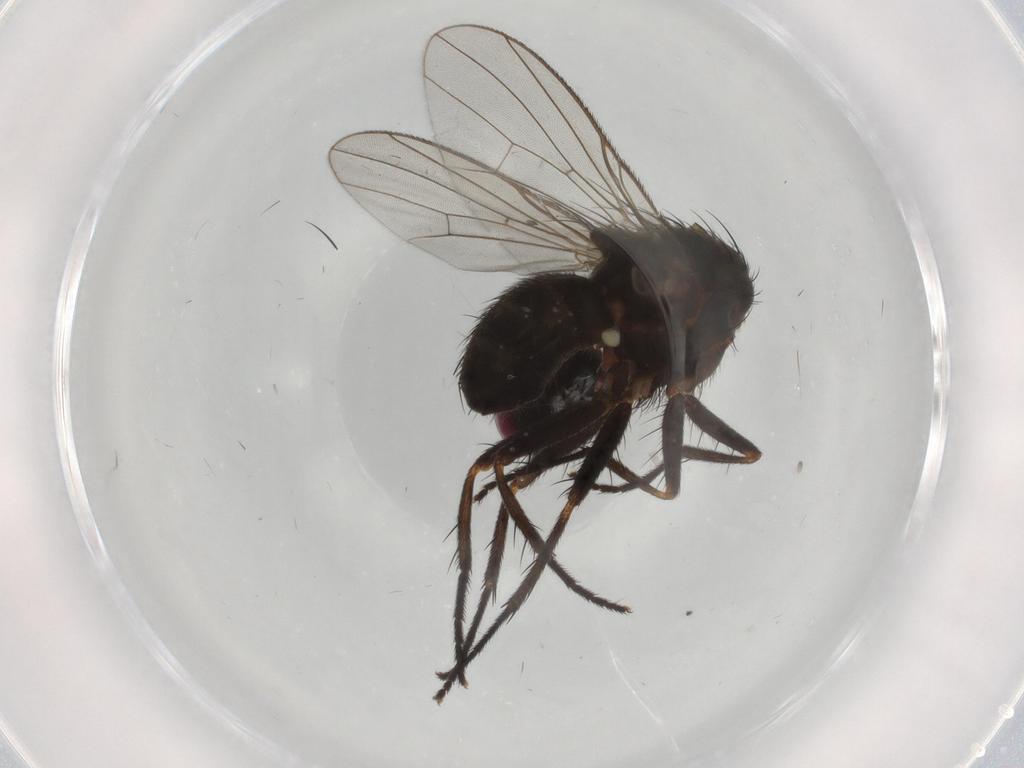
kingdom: Animalia
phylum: Arthropoda
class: Insecta
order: Diptera
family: Muscidae
